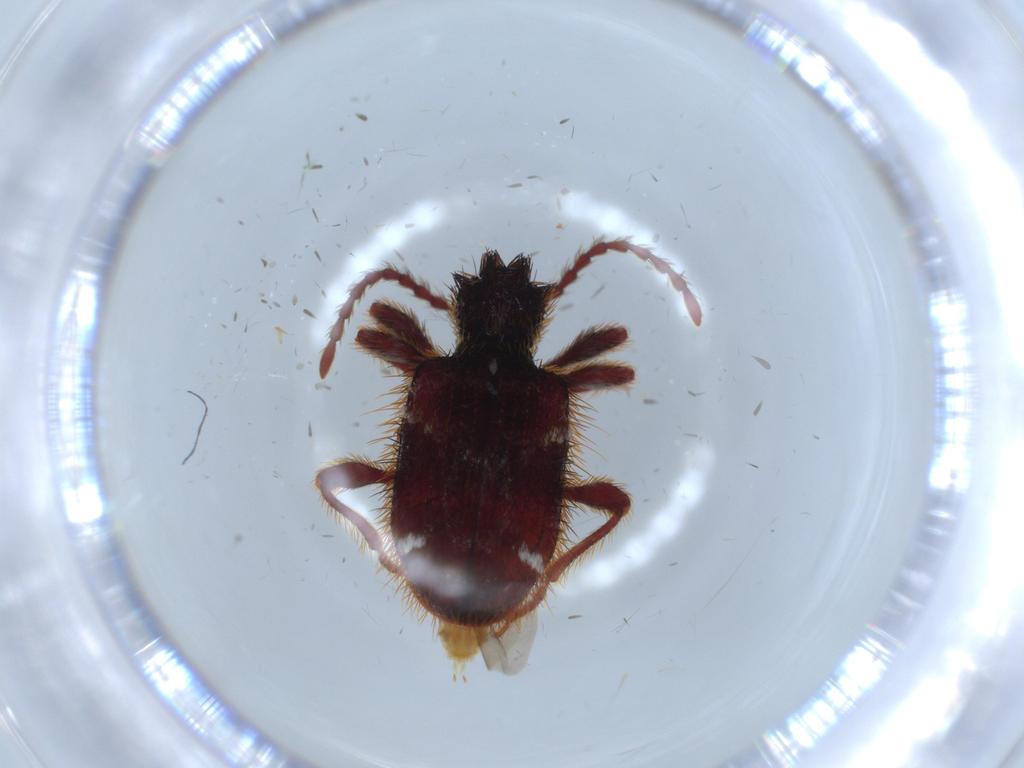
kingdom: Animalia
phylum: Arthropoda
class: Insecta
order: Coleoptera
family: Ptinidae
